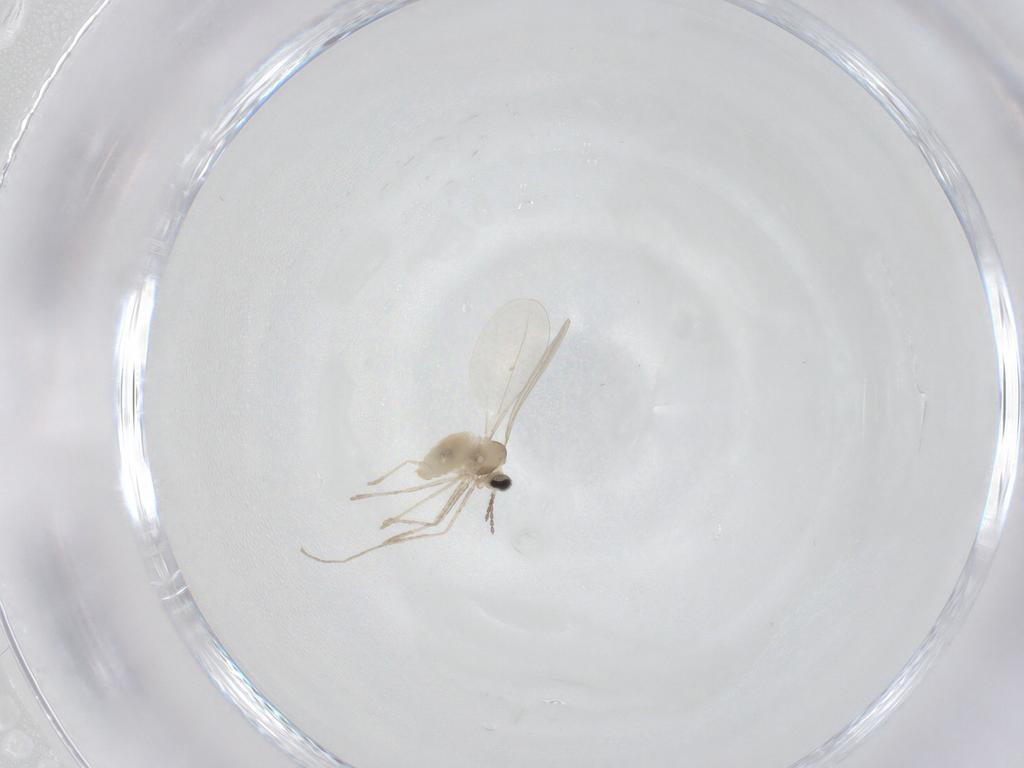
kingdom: Animalia
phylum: Arthropoda
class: Insecta
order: Diptera
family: Cecidomyiidae
